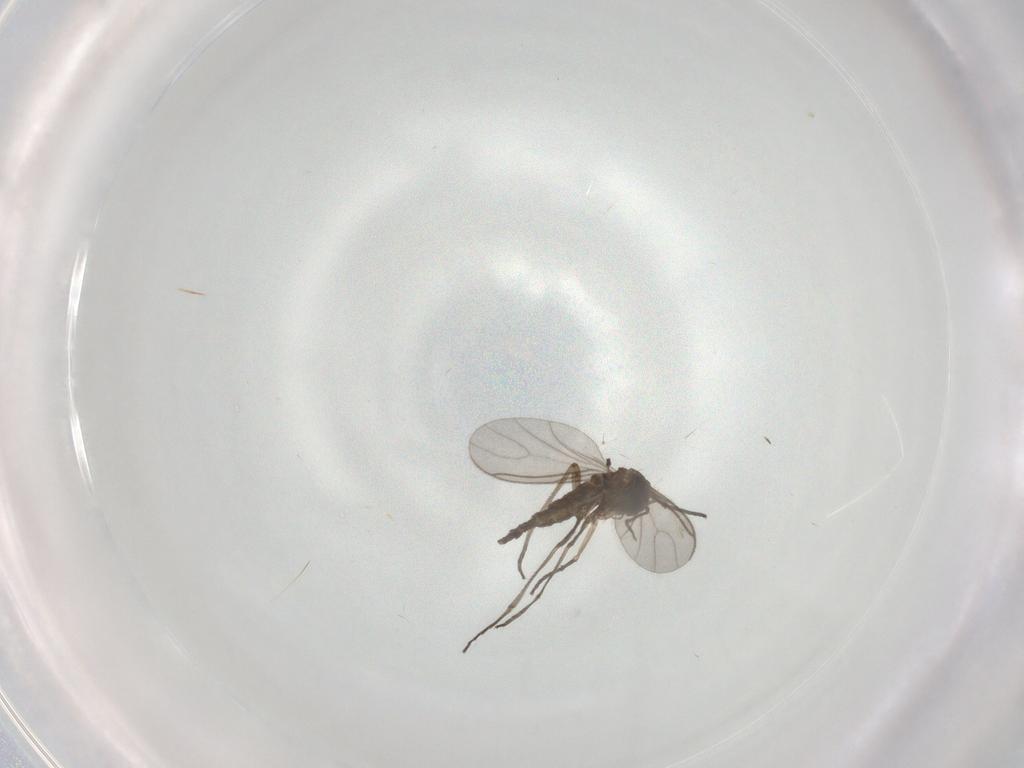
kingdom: Animalia
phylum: Arthropoda
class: Insecta
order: Diptera
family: Sciaridae
